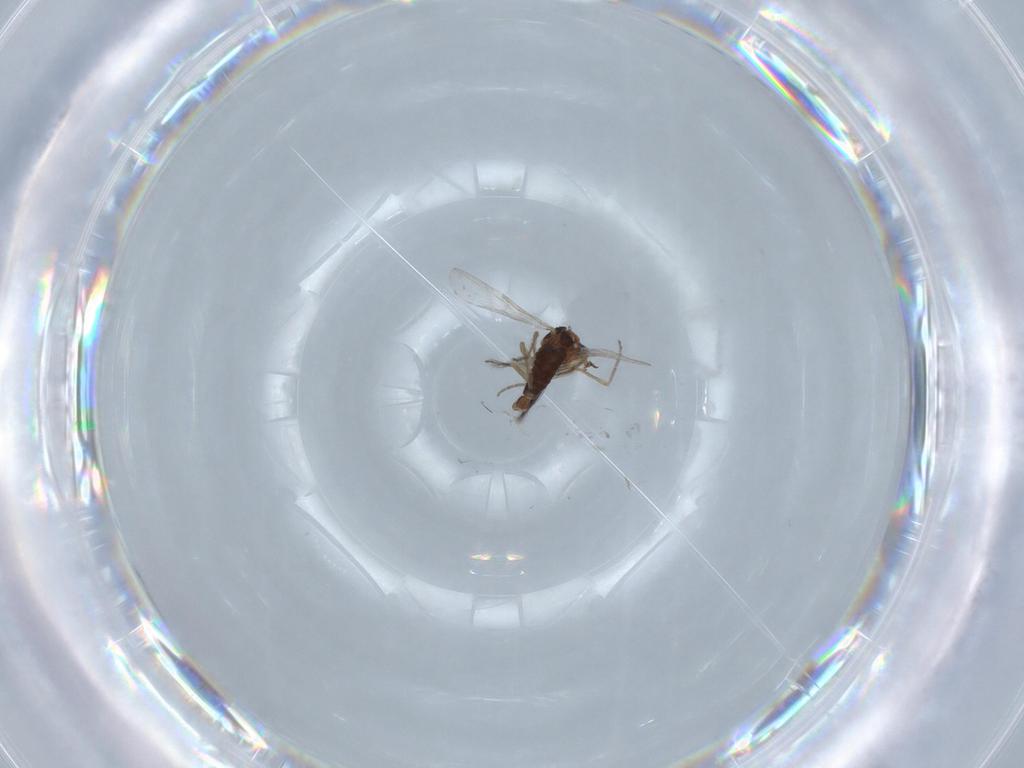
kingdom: Animalia
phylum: Arthropoda
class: Insecta
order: Diptera
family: Ceratopogonidae
